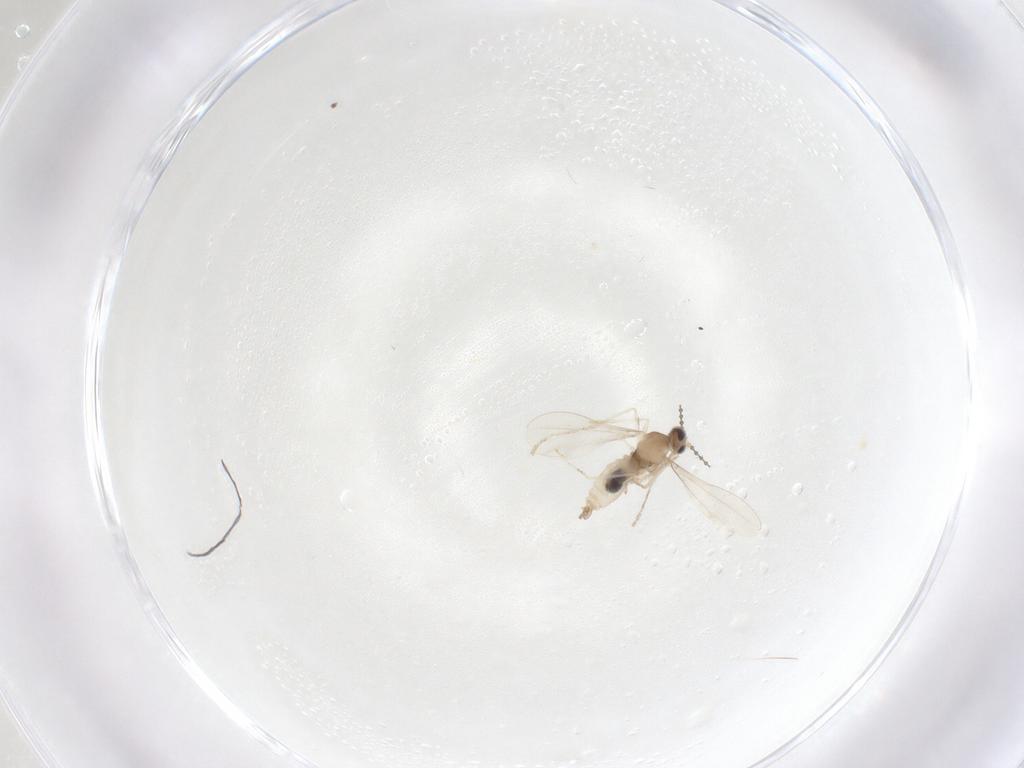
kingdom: Animalia
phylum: Arthropoda
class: Insecta
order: Diptera
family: Cecidomyiidae
